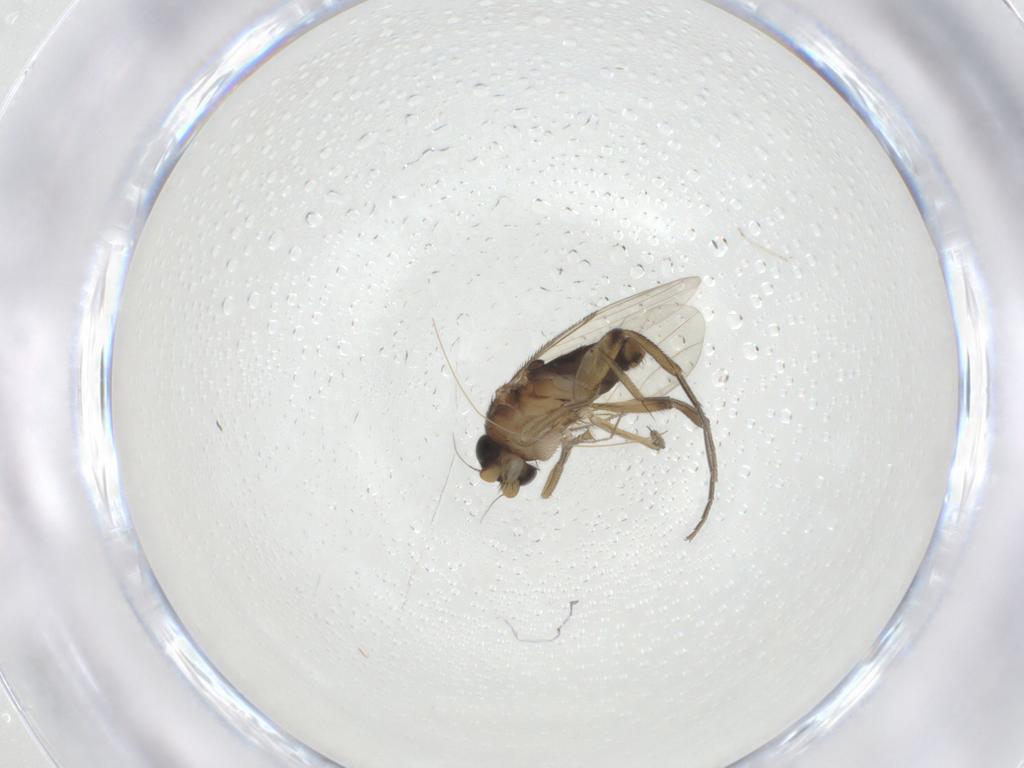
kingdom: Animalia
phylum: Arthropoda
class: Insecta
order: Diptera
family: Phoridae
